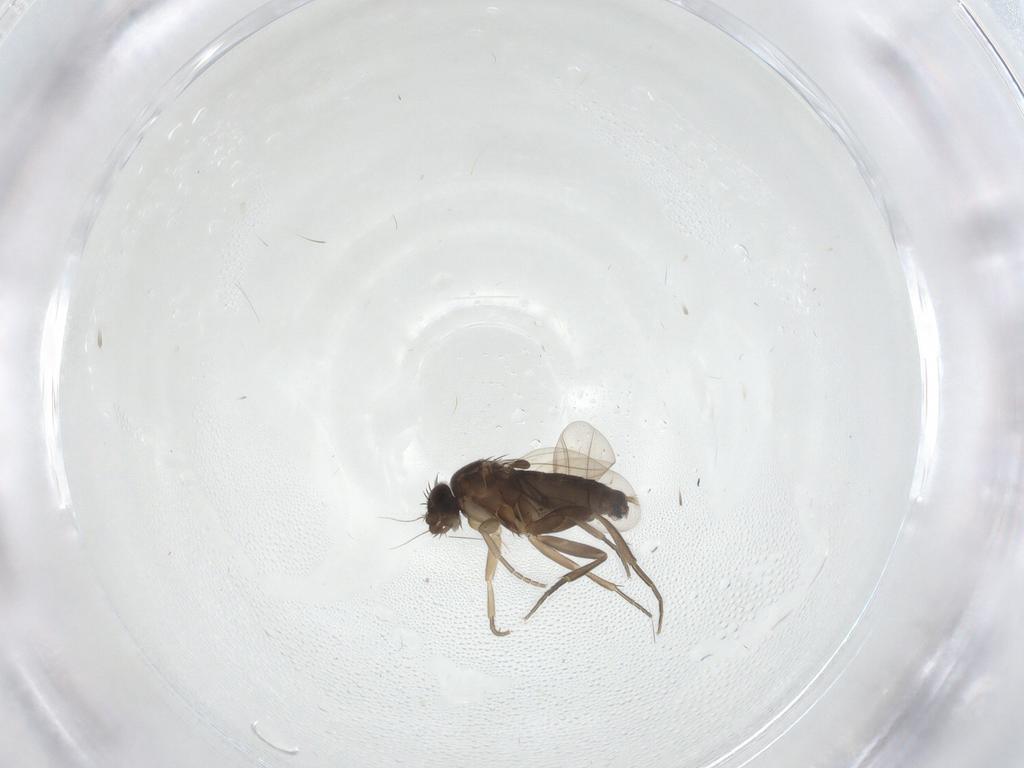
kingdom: Animalia
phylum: Arthropoda
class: Insecta
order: Diptera
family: Phoridae
